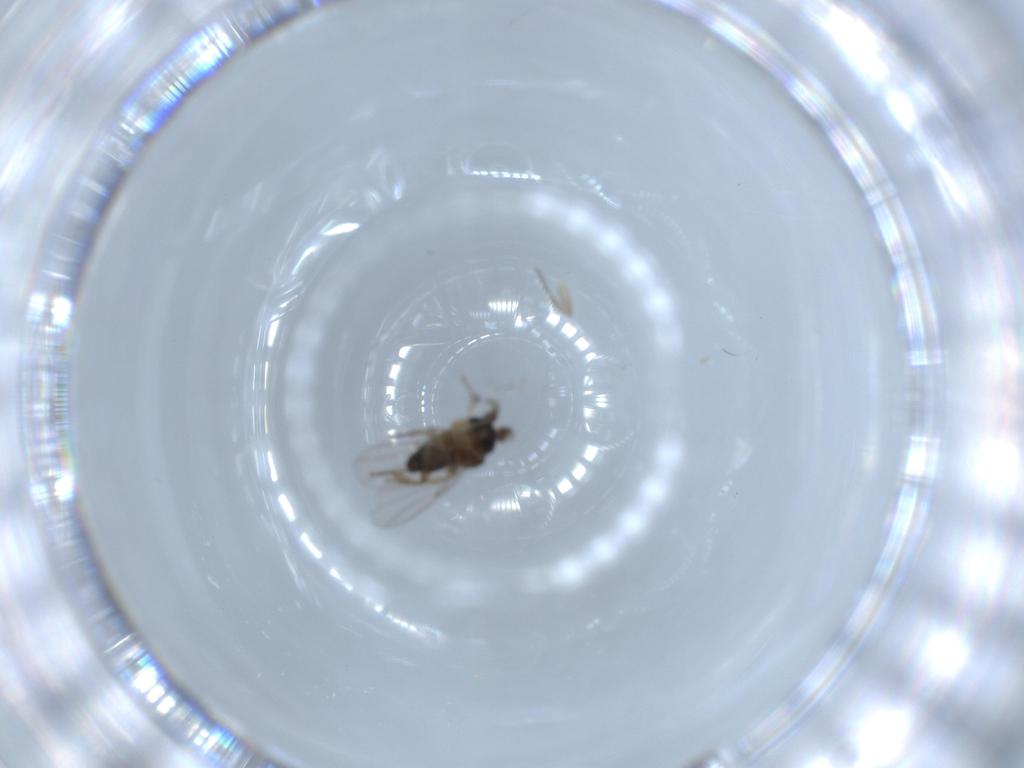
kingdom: Animalia
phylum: Arthropoda
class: Insecta
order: Diptera
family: Phoridae
